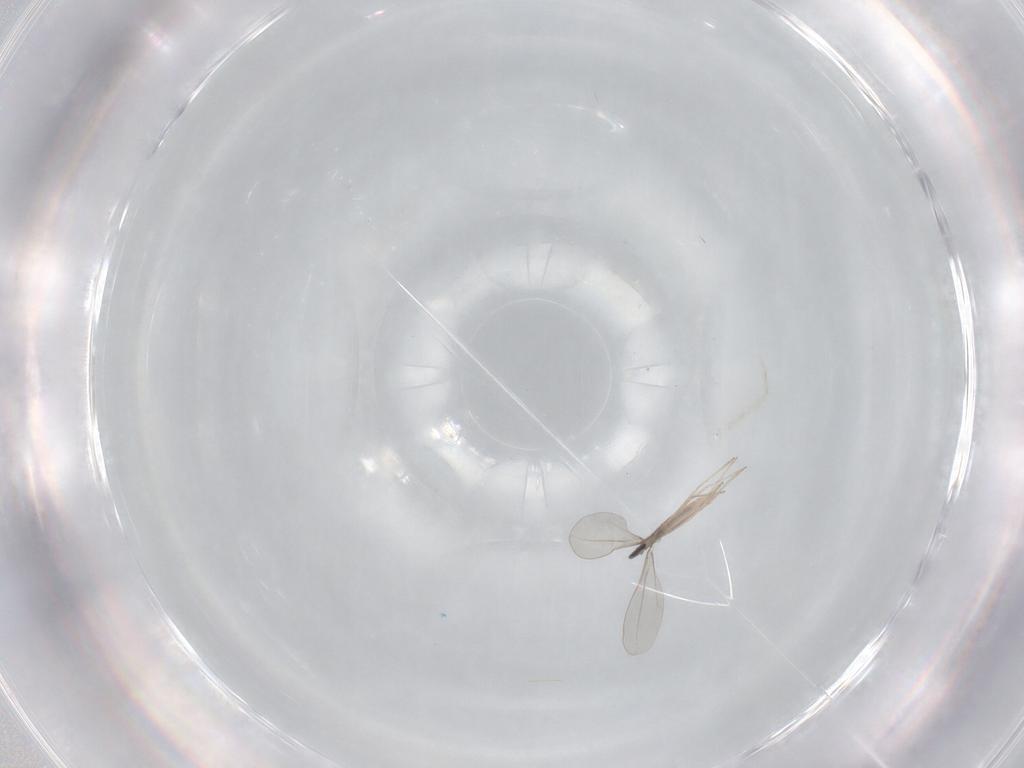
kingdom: Animalia
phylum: Arthropoda
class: Insecta
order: Diptera
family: Cecidomyiidae
